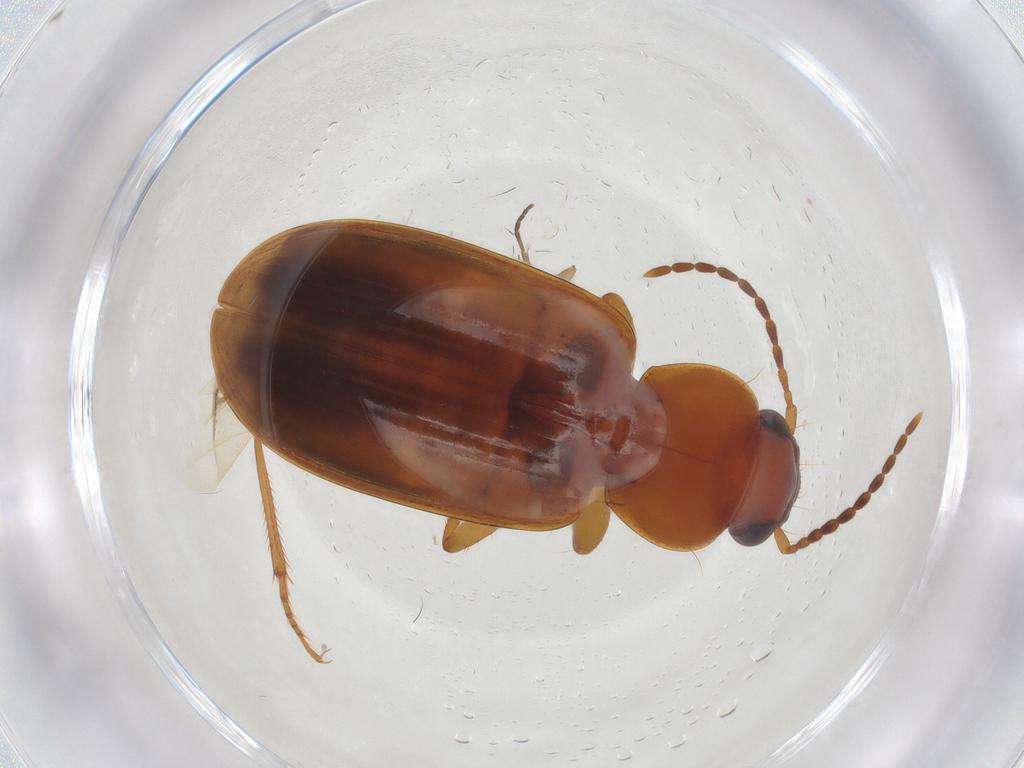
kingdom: Animalia
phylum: Arthropoda
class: Insecta
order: Coleoptera
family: Carabidae
